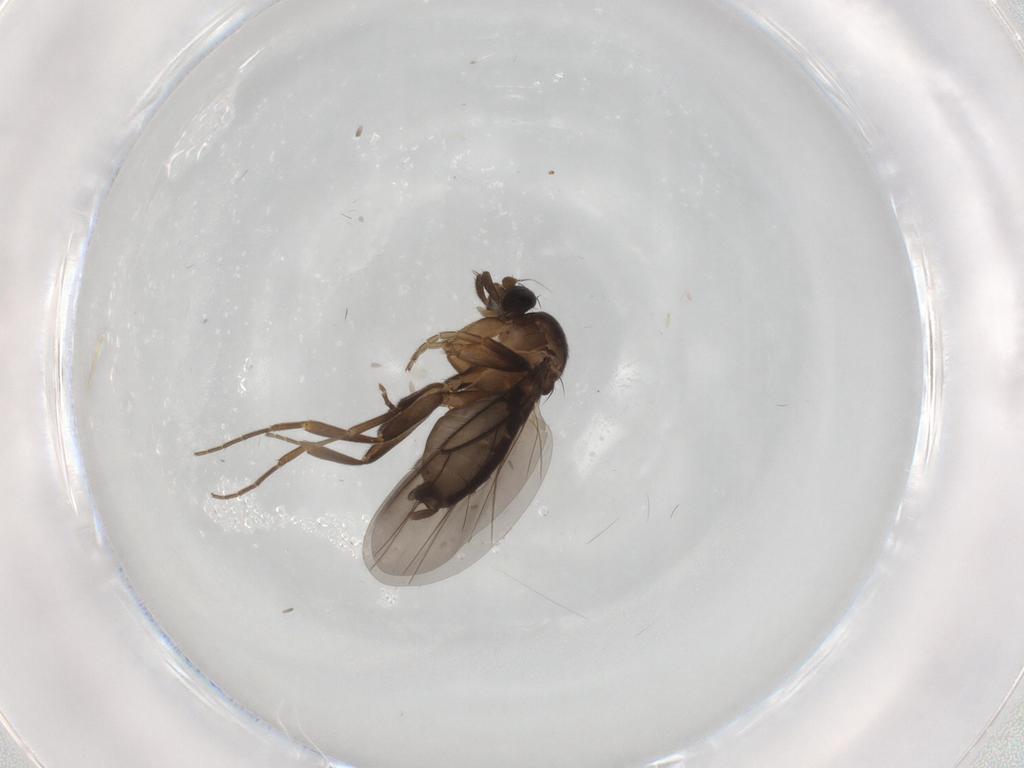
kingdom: Animalia
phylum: Arthropoda
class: Insecta
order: Diptera
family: Phoridae
